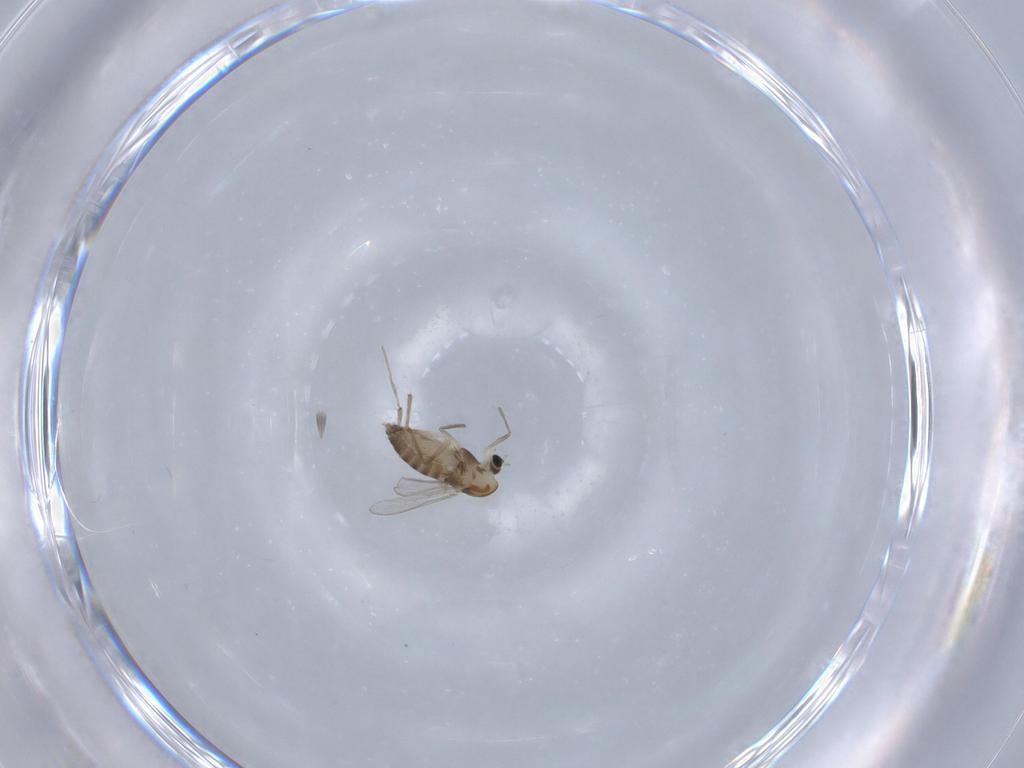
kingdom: Animalia
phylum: Arthropoda
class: Insecta
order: Diptera
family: Chironomidae
